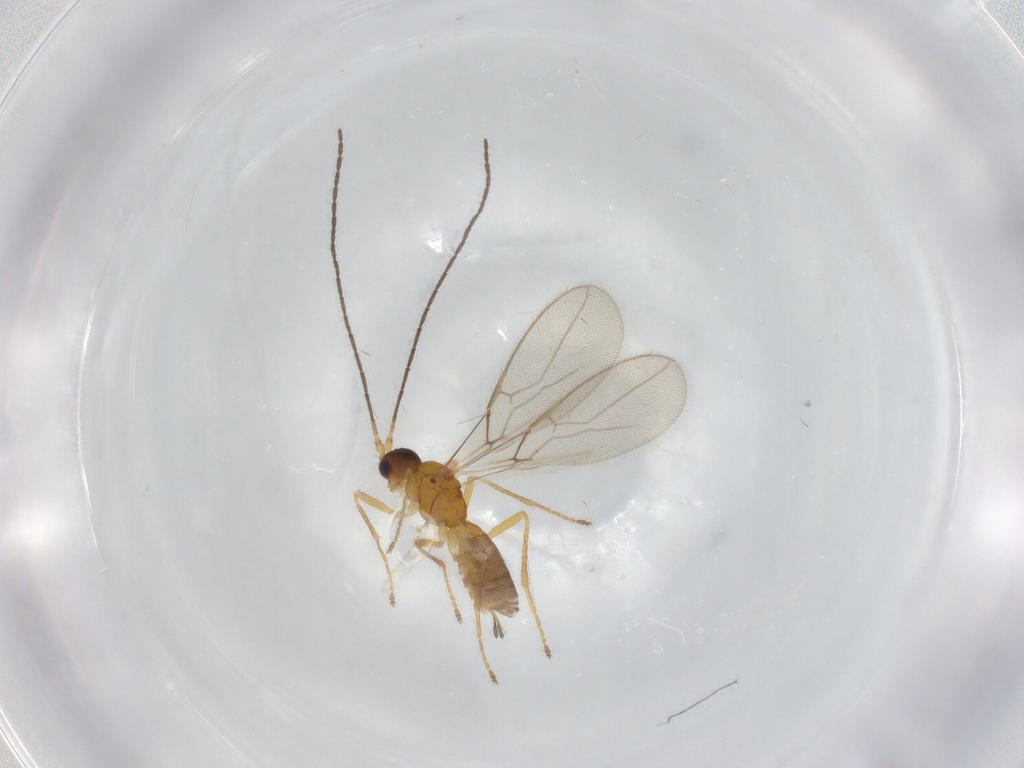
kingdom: Animalia
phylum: Arthropoda
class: Insecta
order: Hymenoptera
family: Braconidae
